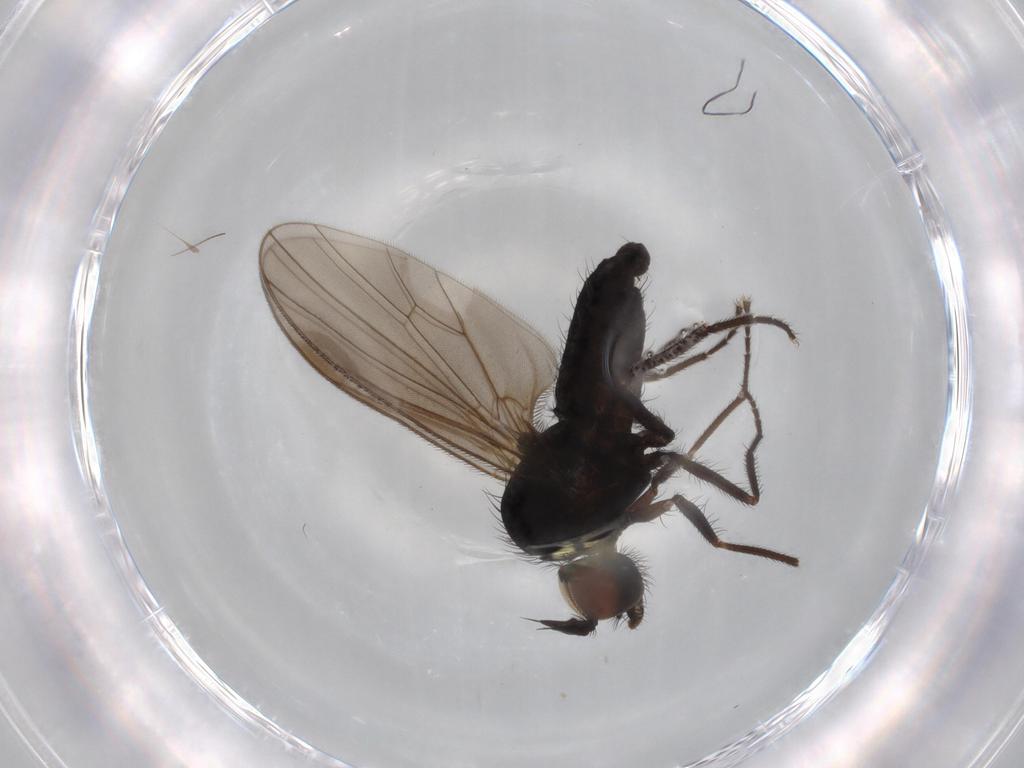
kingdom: Animalia
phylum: Arthropoda
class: Insecta
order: Diptera
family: Dolichopodidae
